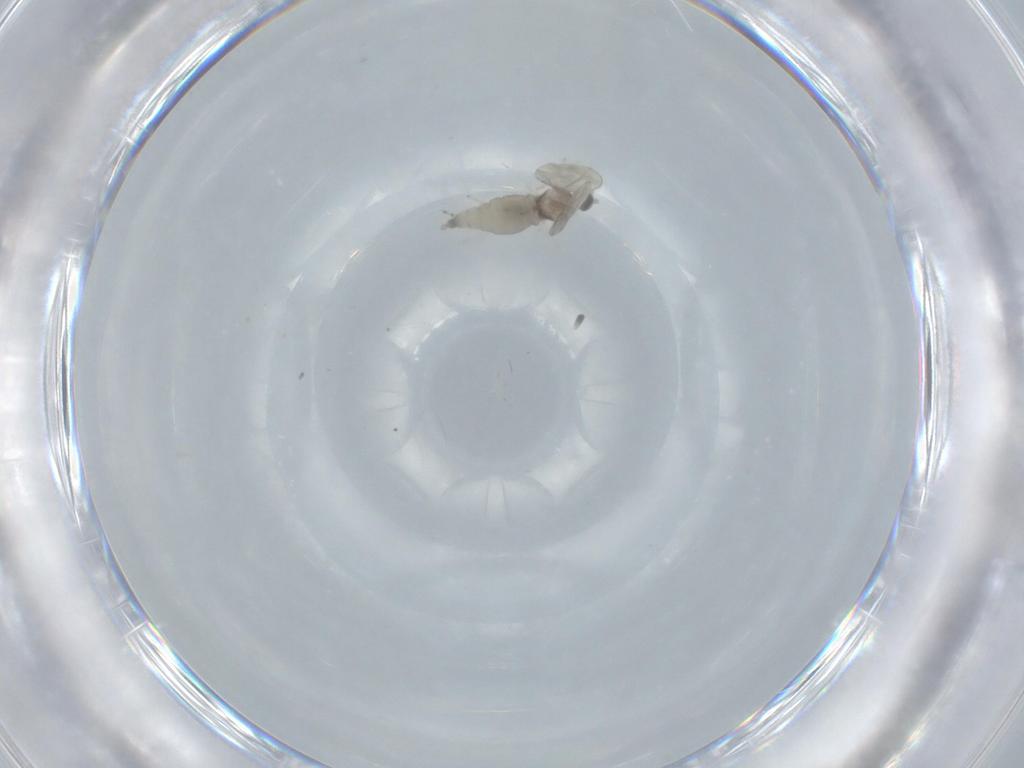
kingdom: Animalia
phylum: Arthropoda
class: Insecta
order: Diptera
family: Cecidomyiidae
